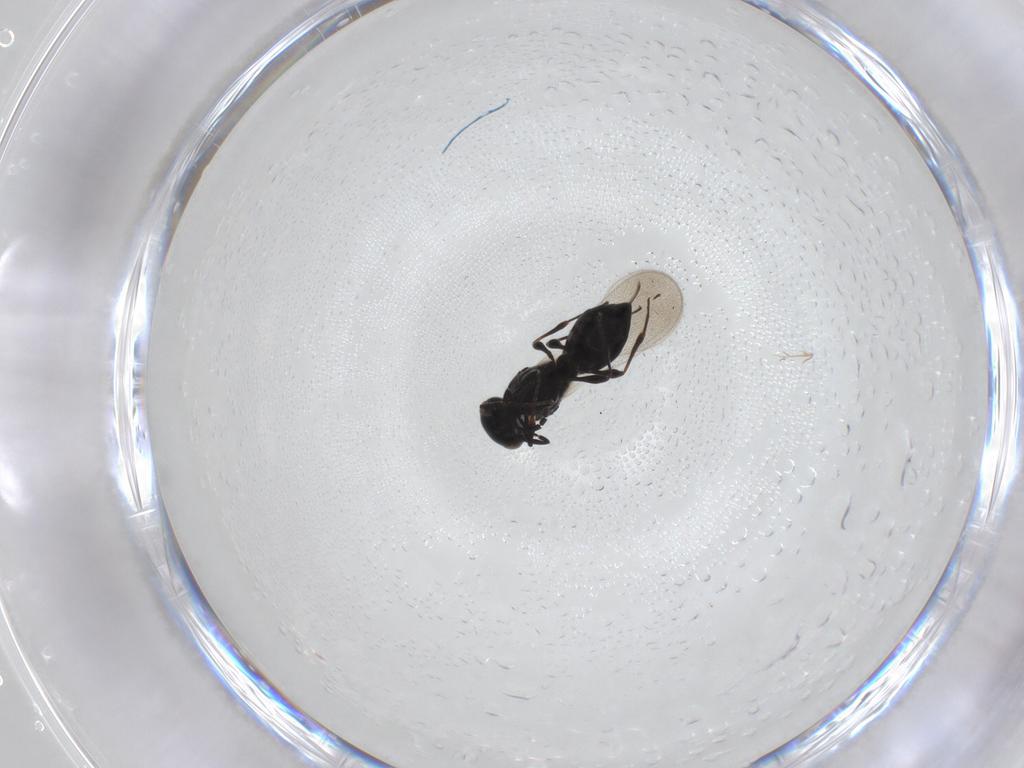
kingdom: Animalia
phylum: Arthropoda
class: Insecta
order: Hymenoptera
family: Platygastridae
